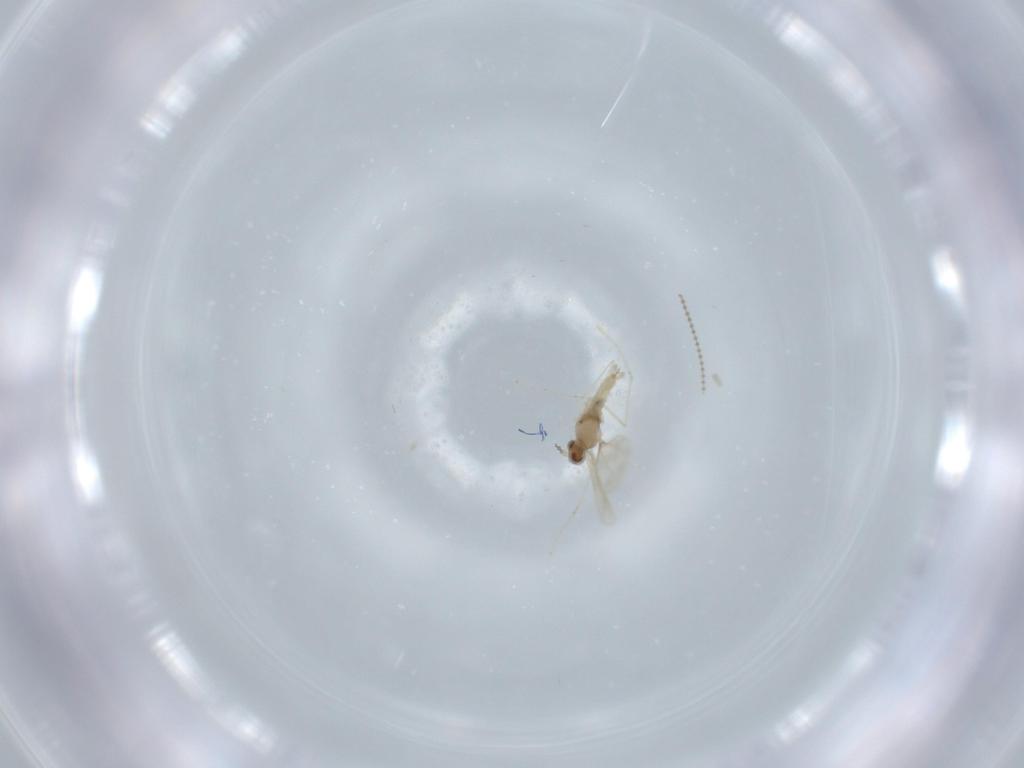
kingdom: Animalia
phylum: Arthropoda
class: Insecta
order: Diptera
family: Cecidomyiidae
